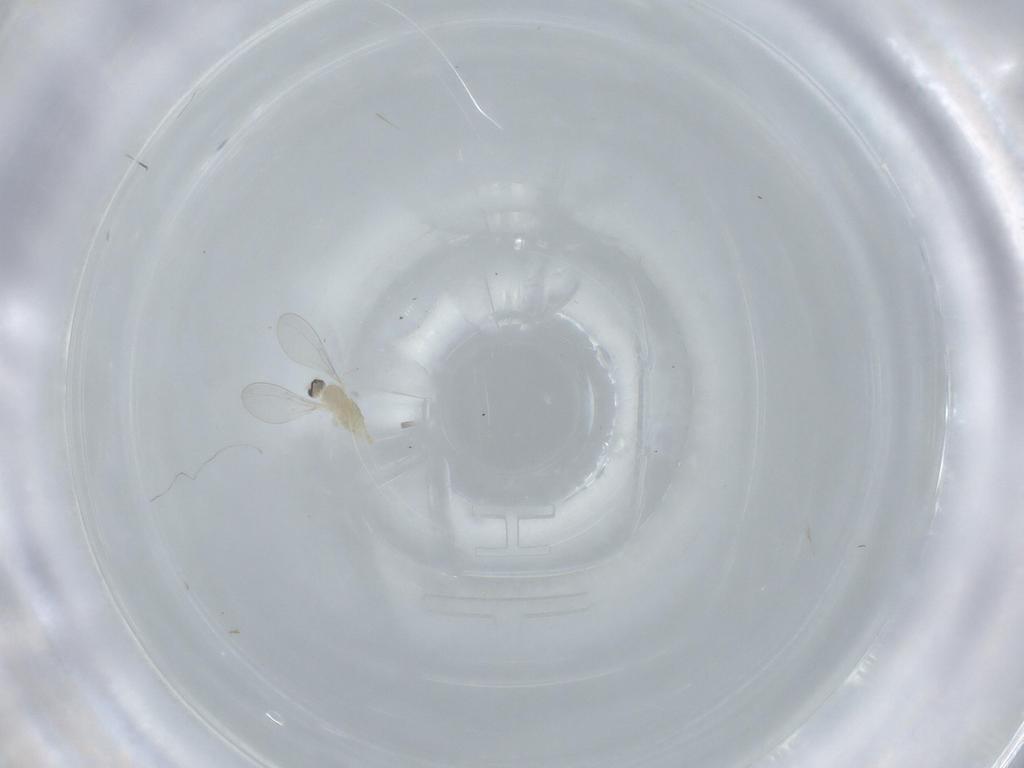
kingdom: Animalia
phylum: Arthropoda
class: Insecta
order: Diptera
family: Cecidomyiidae
